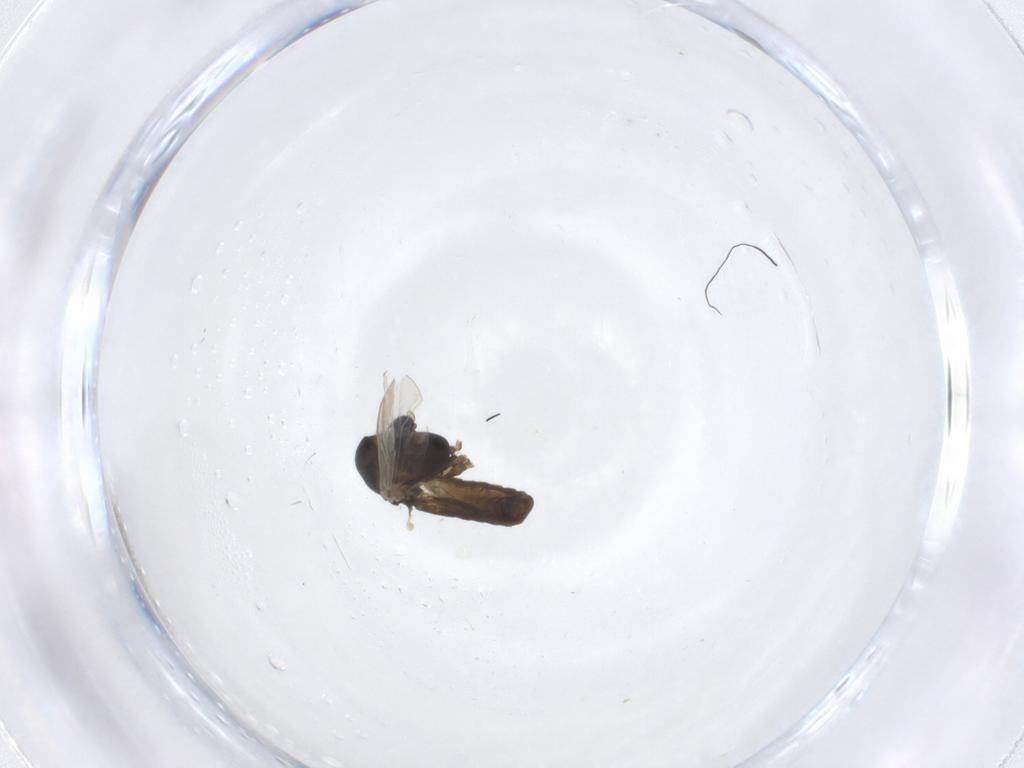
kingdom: Animalia
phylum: Arthropoda
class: Insecta
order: Diptera
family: Chironomidae
